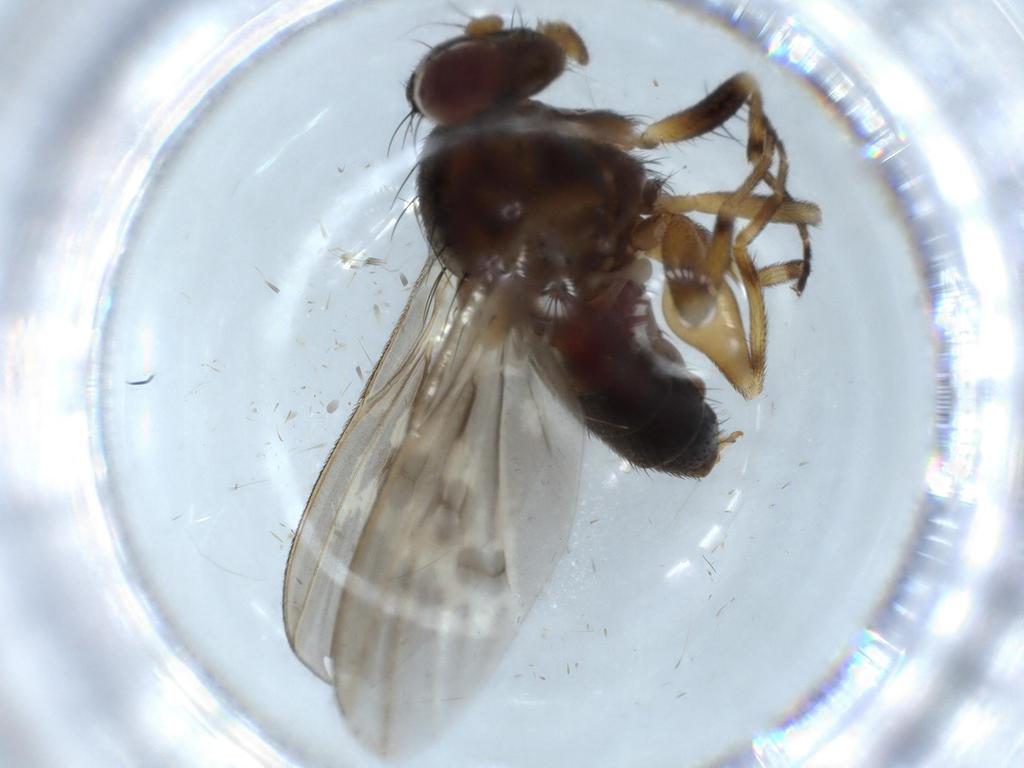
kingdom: Animalia
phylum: Arthropoda
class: Insecta
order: Diptera
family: Odiniidae
